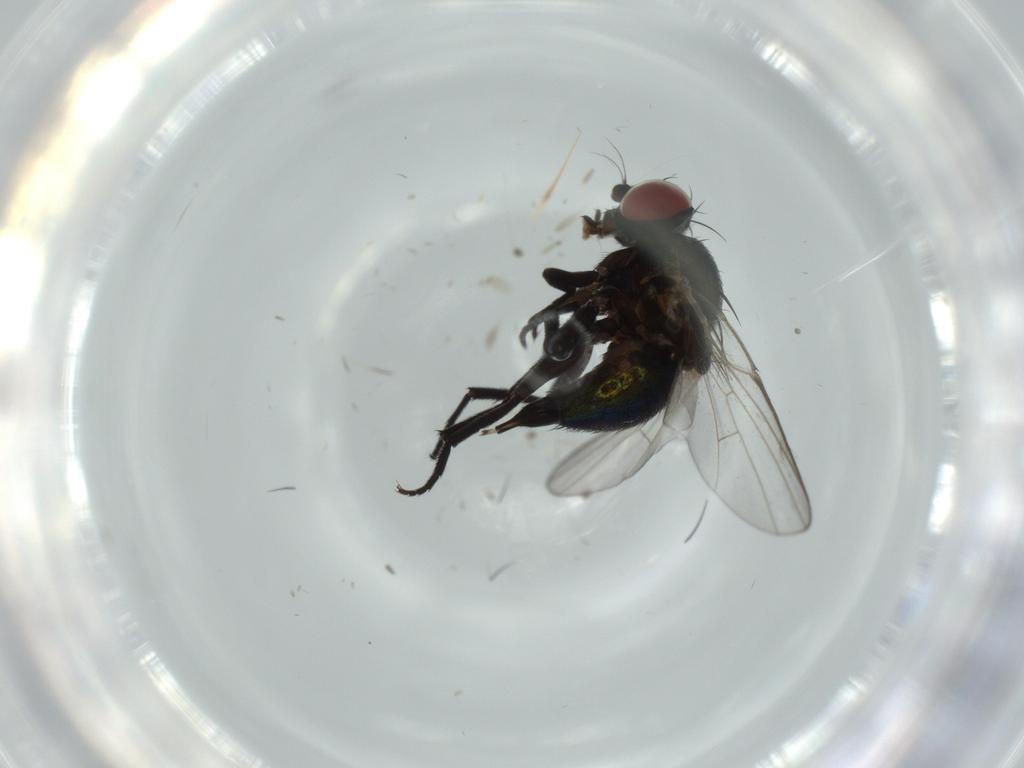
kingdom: Animalia
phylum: Arthropoda
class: Insecta
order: Diptera
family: Agromyzidae
